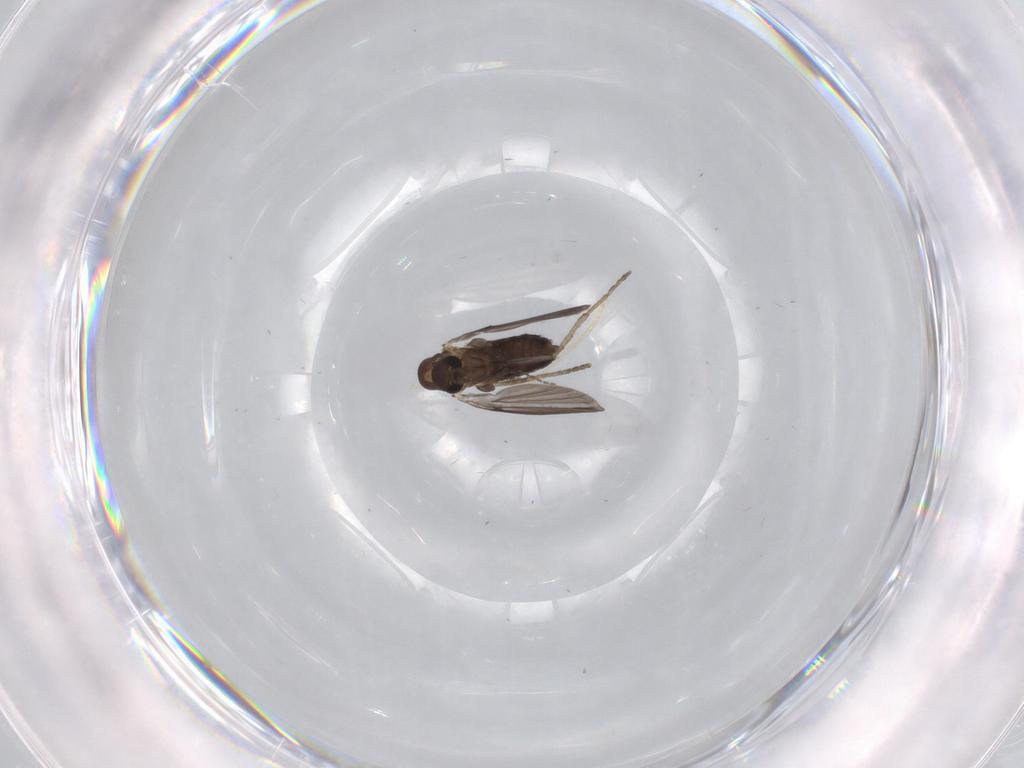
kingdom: Animalia
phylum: Arthropoda
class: Insecta
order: Diptera
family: Psychodidae
